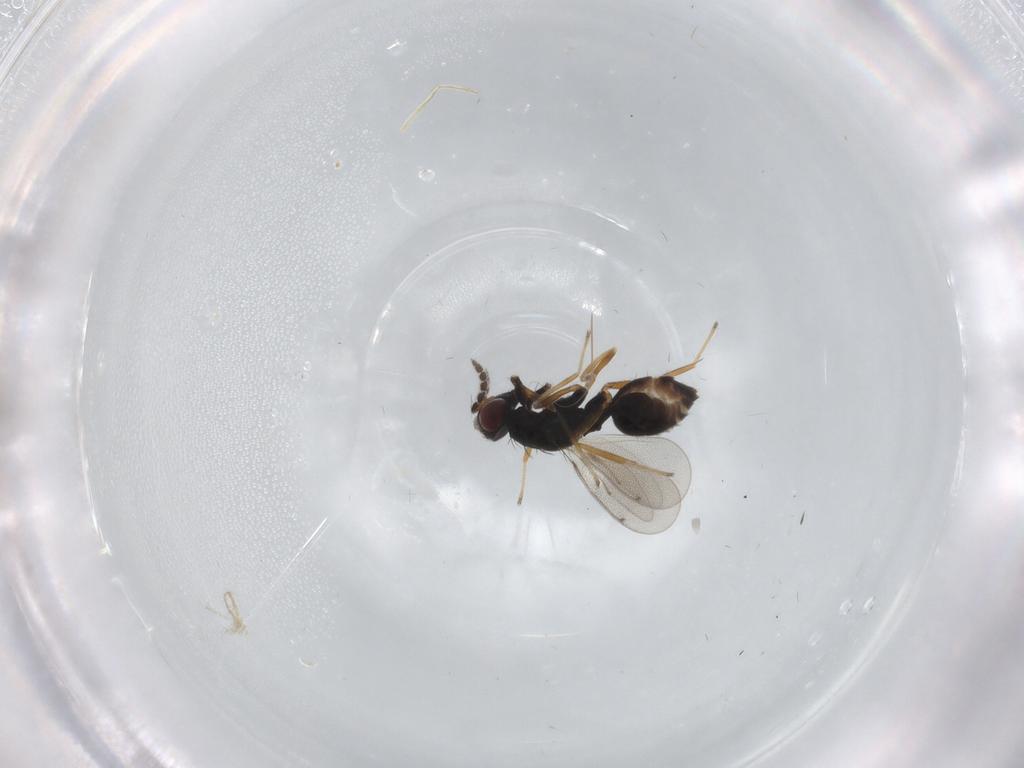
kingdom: Animalia
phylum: Arthropoda
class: Insecta
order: Hymenoptera
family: Eulophidae
